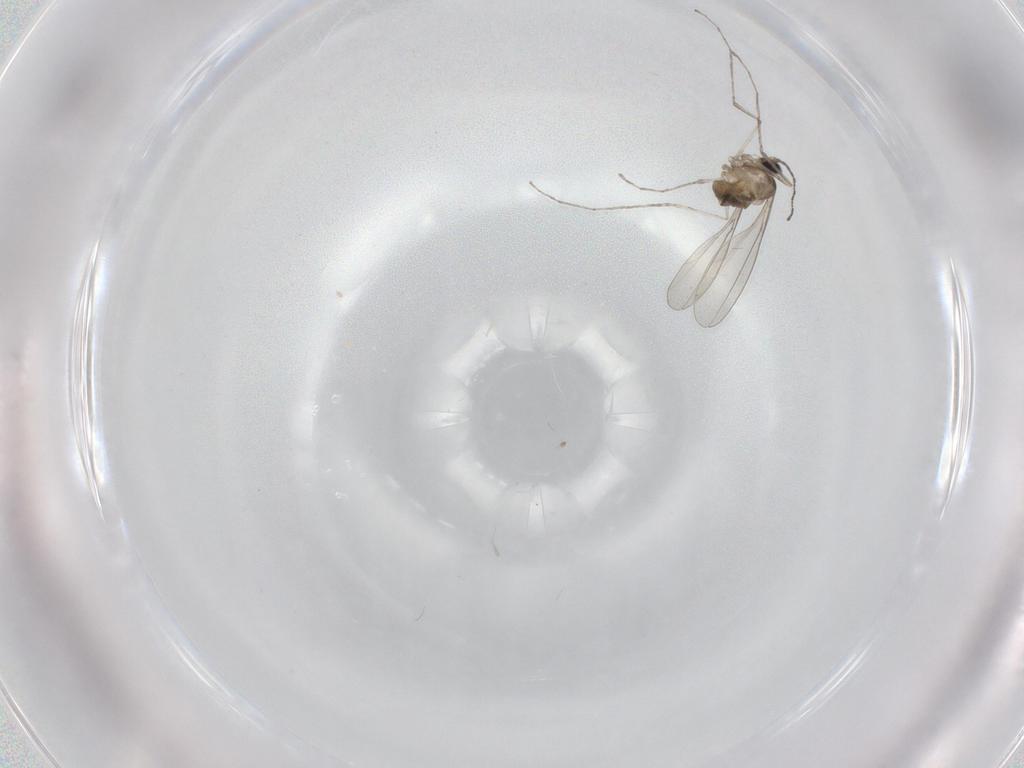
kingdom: Animalia
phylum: Arthropoda
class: Insecta
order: Diptera
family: Cecidomyiidae
